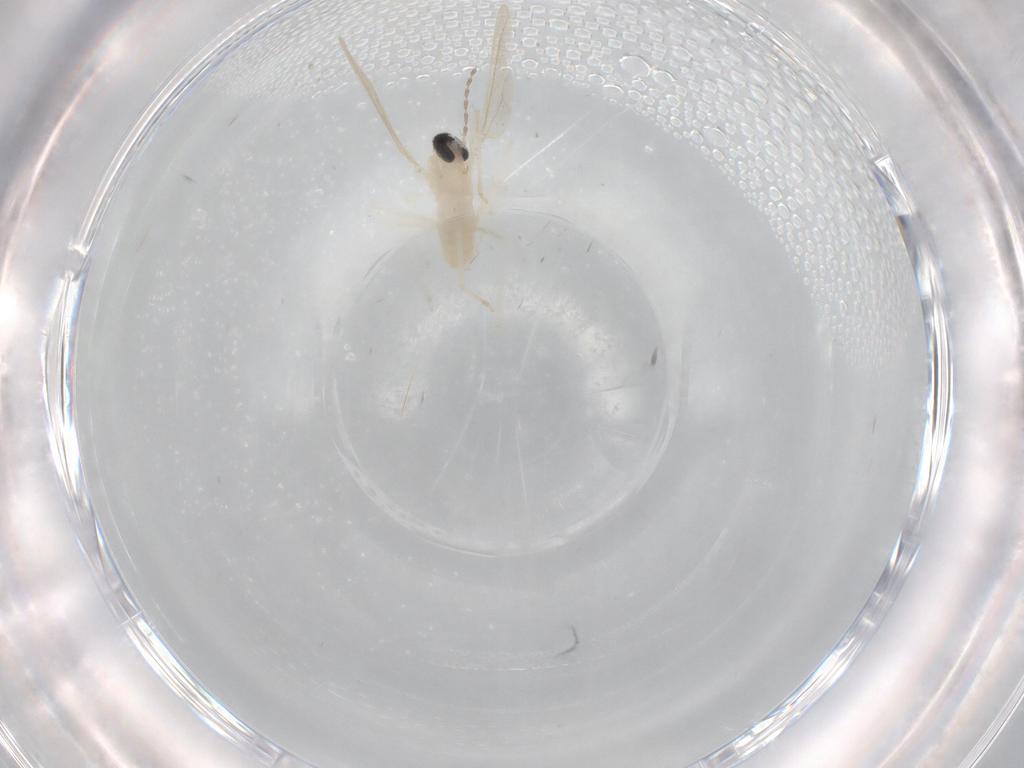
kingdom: Animalia
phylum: Arthropoda
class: Insecta
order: Diptera
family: Cecidomyiidae
